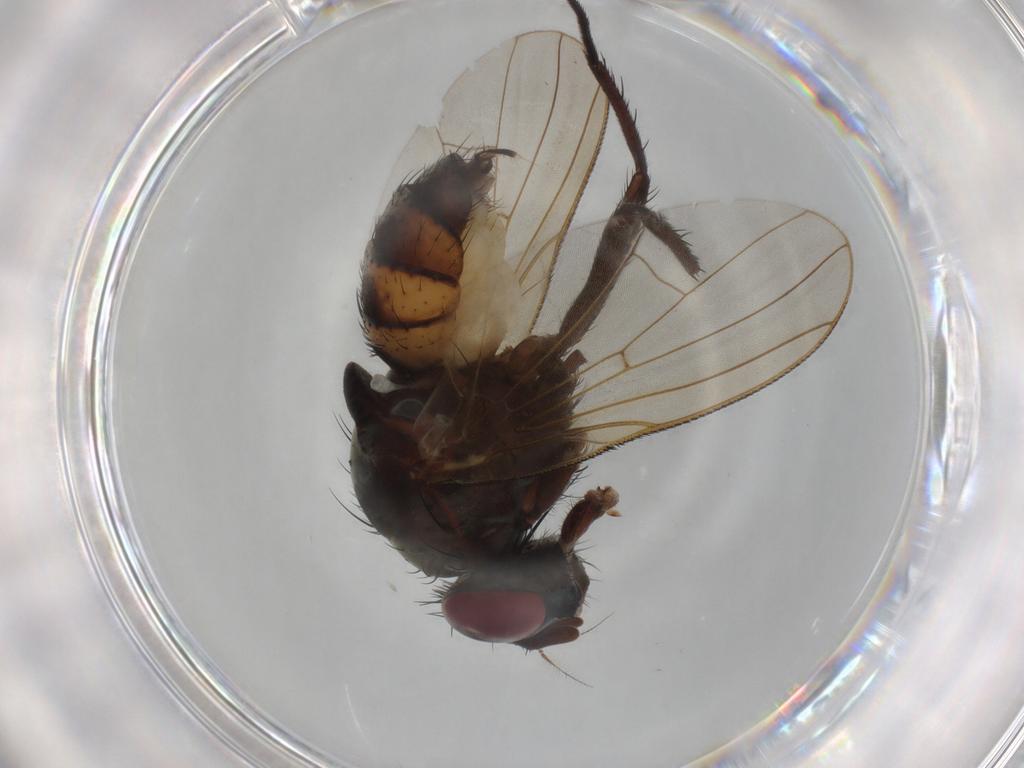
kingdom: Animalia
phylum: Arthropoda
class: Insecta
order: Diptera
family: Anthomyiidae
